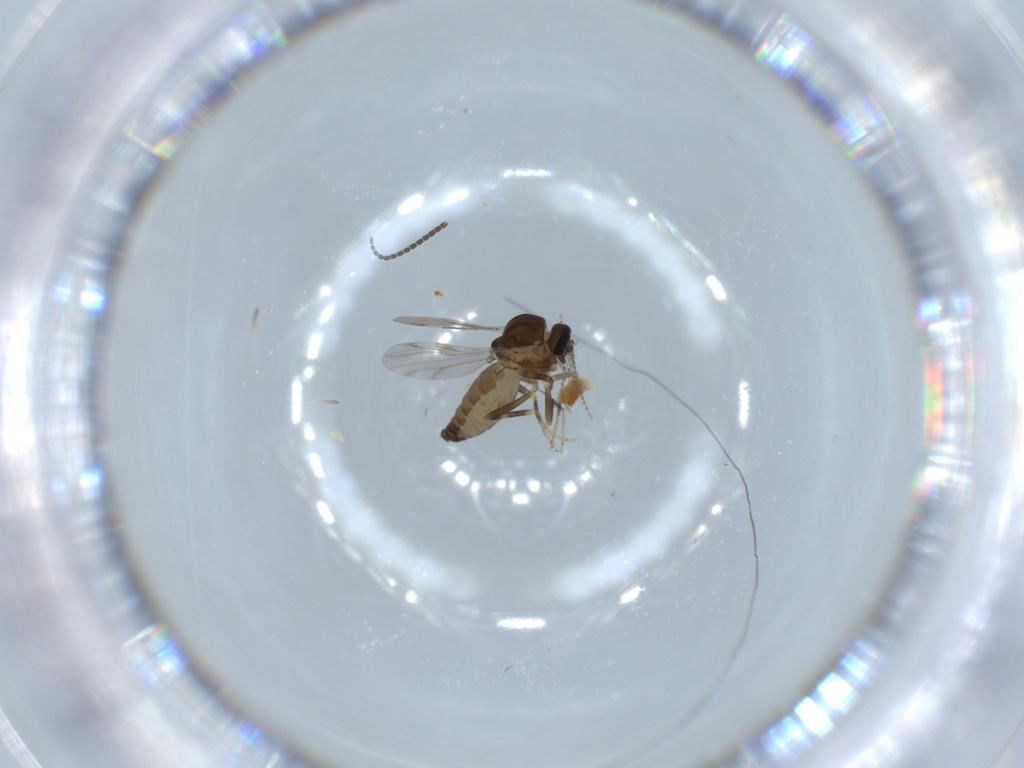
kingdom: Animalia
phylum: Arthropoda
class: Insecta
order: Diptera
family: Ceratopogonidae
